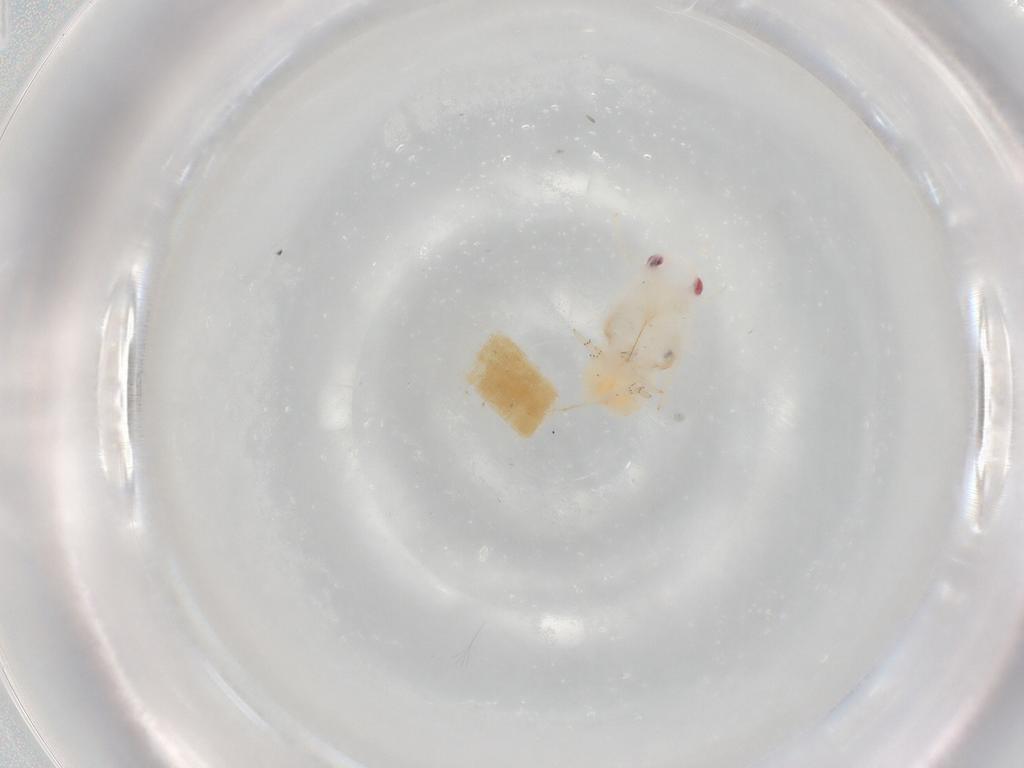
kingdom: Animalia
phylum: Arthropoda
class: Insecta
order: Hemiptera
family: Flatidae
